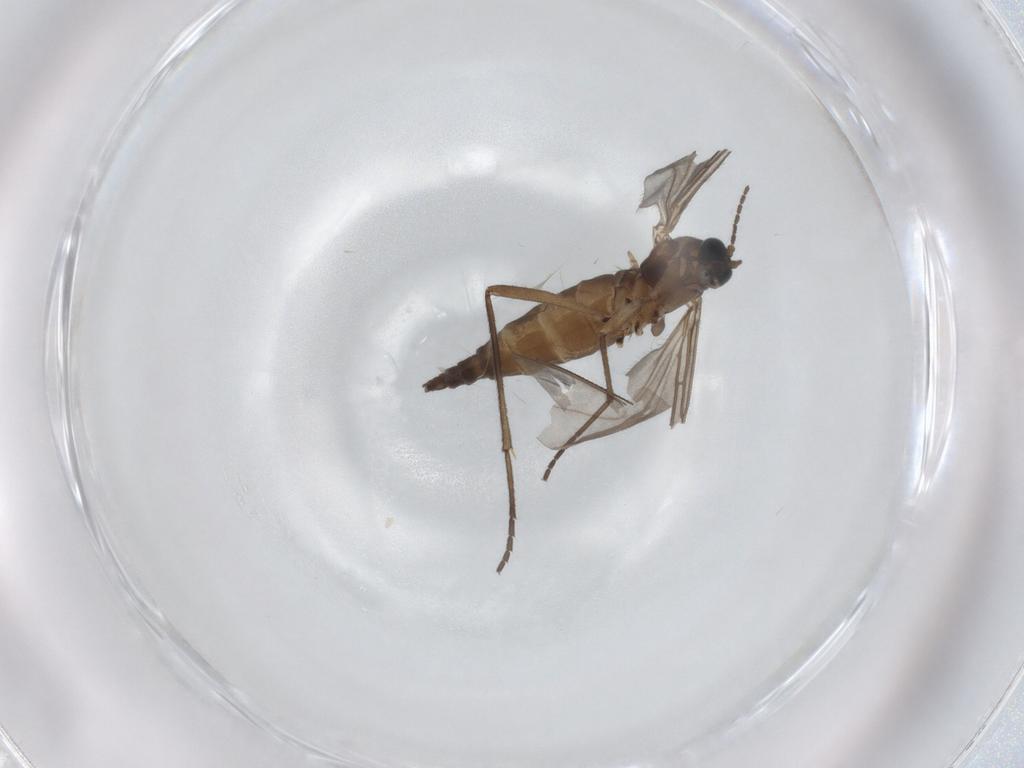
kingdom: Animalia
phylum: Arthropoda
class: Insecta
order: Diptera
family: Sciaridae
